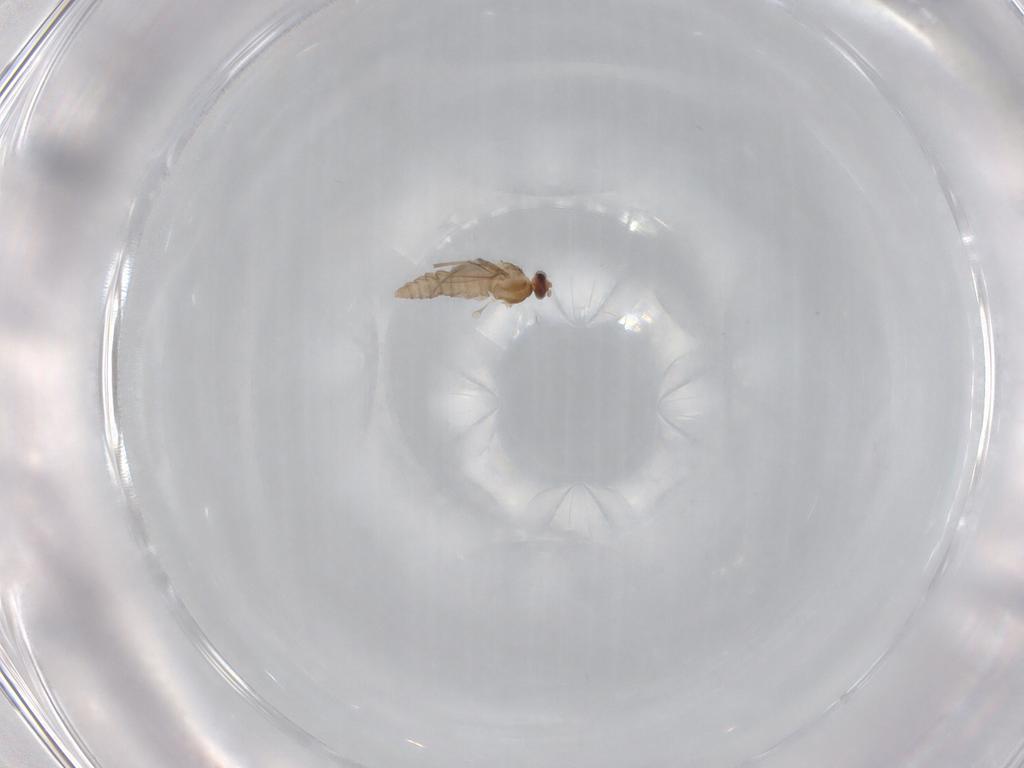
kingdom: Animalia
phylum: Arthropoda
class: Insecta
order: Diptera
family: Cecidomyiidae
